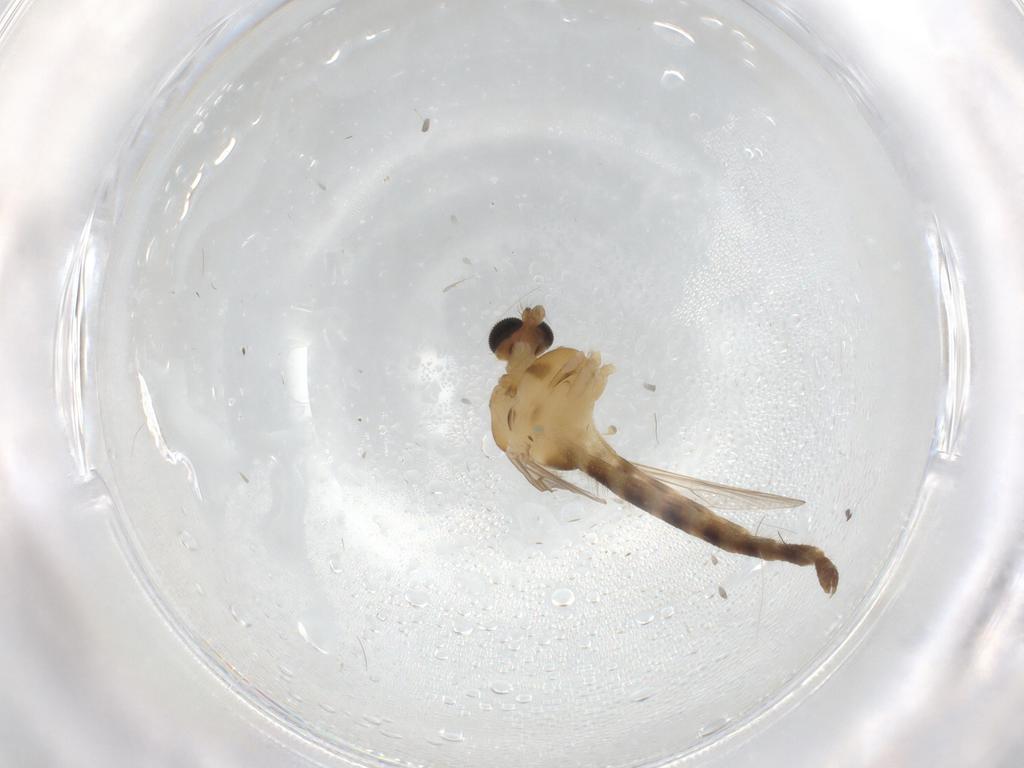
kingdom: Animalia
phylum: Arthropoda
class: Insecta
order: Diptera
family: Chironomidae
